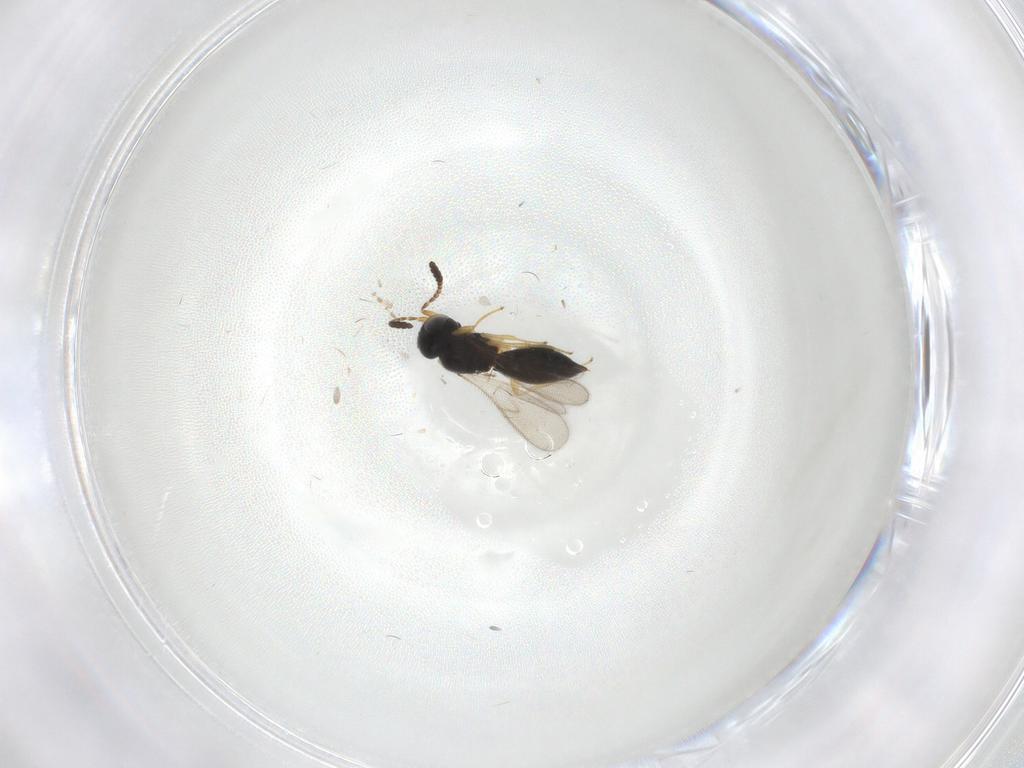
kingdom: Animalia
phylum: Arthropoda
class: Insecta
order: Hymenoptera
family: Scelionidae
